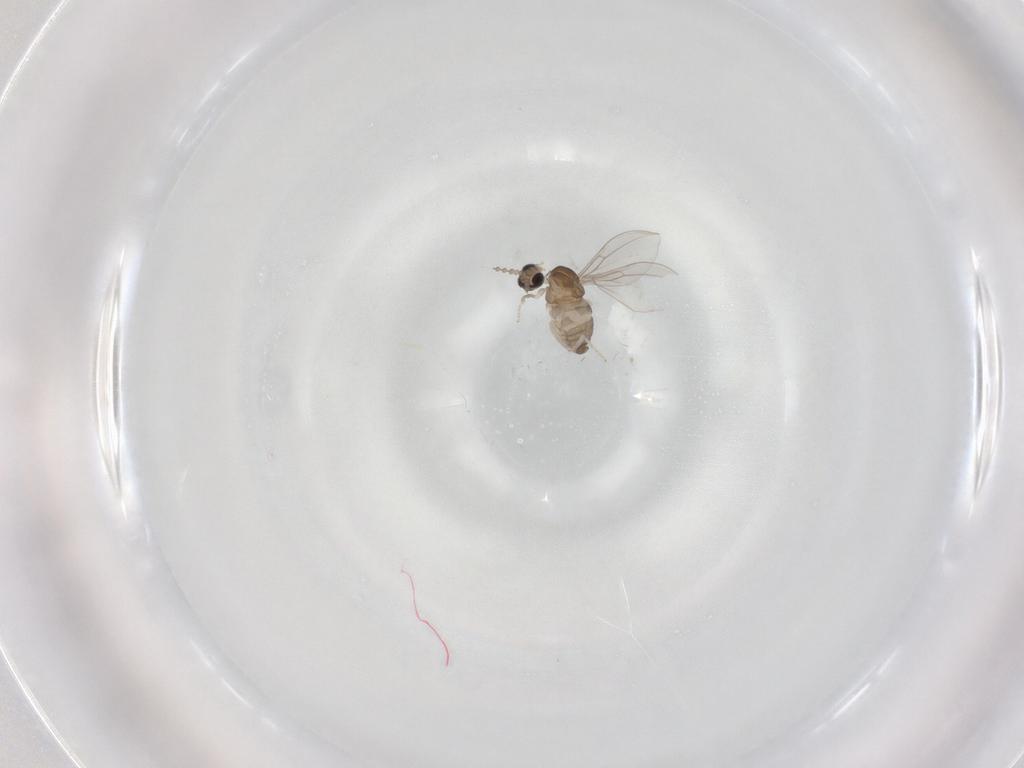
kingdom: Animalia
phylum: Arthropoda
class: Insecta
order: Diptera
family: Cecidomyiidae
